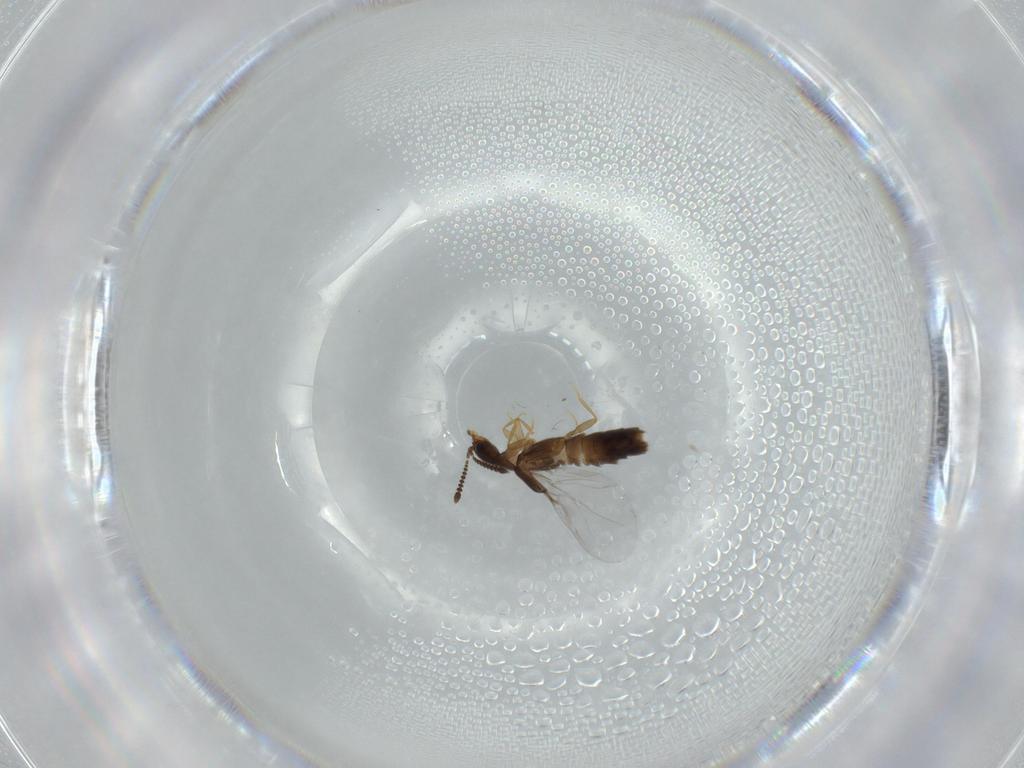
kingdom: Animalia
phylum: Arthropoda
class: Insecta
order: Coleoptera
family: Staphylinidae
